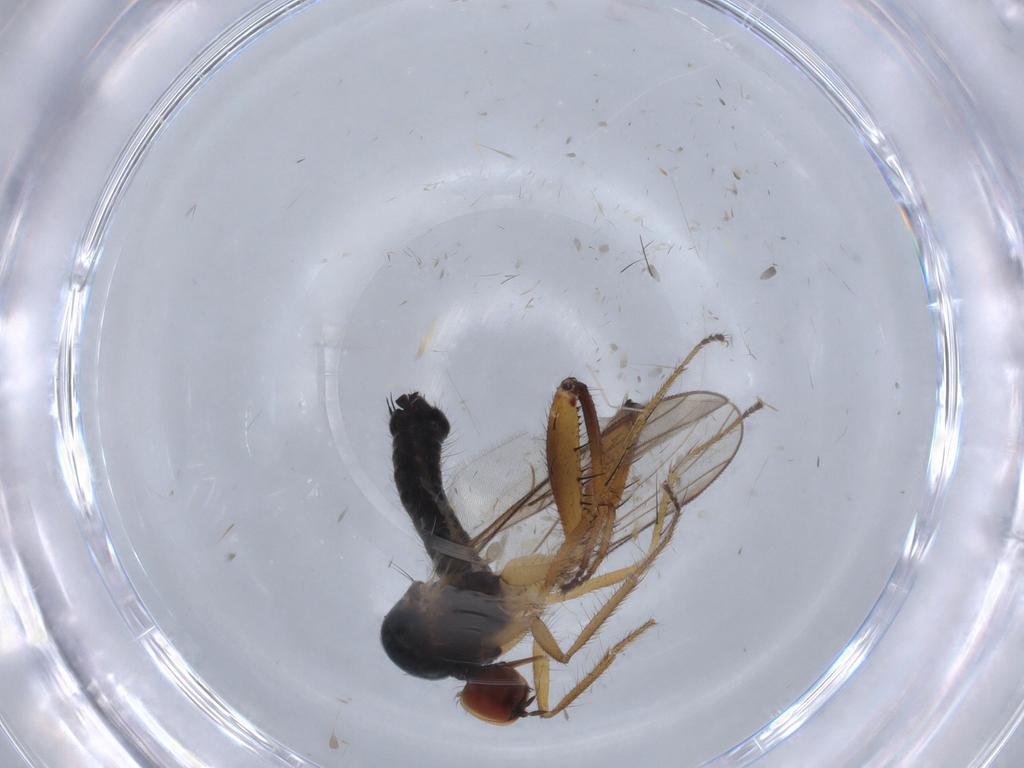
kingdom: Animalia
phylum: Arthropoda
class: Insecta
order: Diptera
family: Hybotidae
